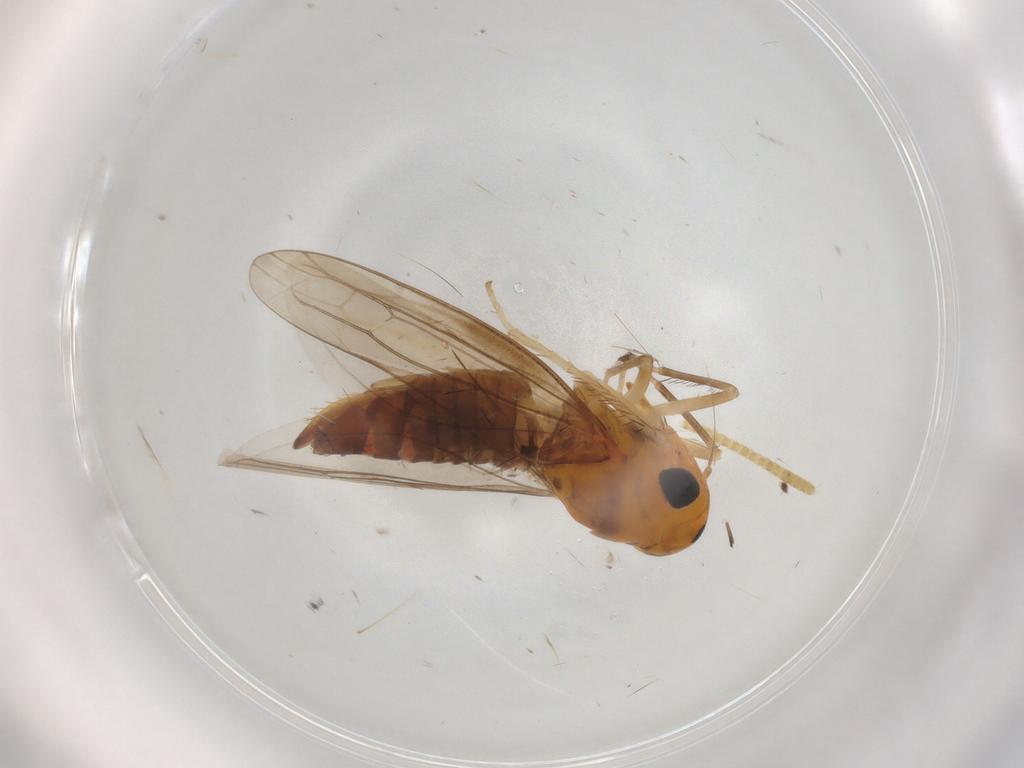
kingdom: Animalia
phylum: Arthropoda
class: Insecta
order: Hemiptera
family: Cicadellidae
